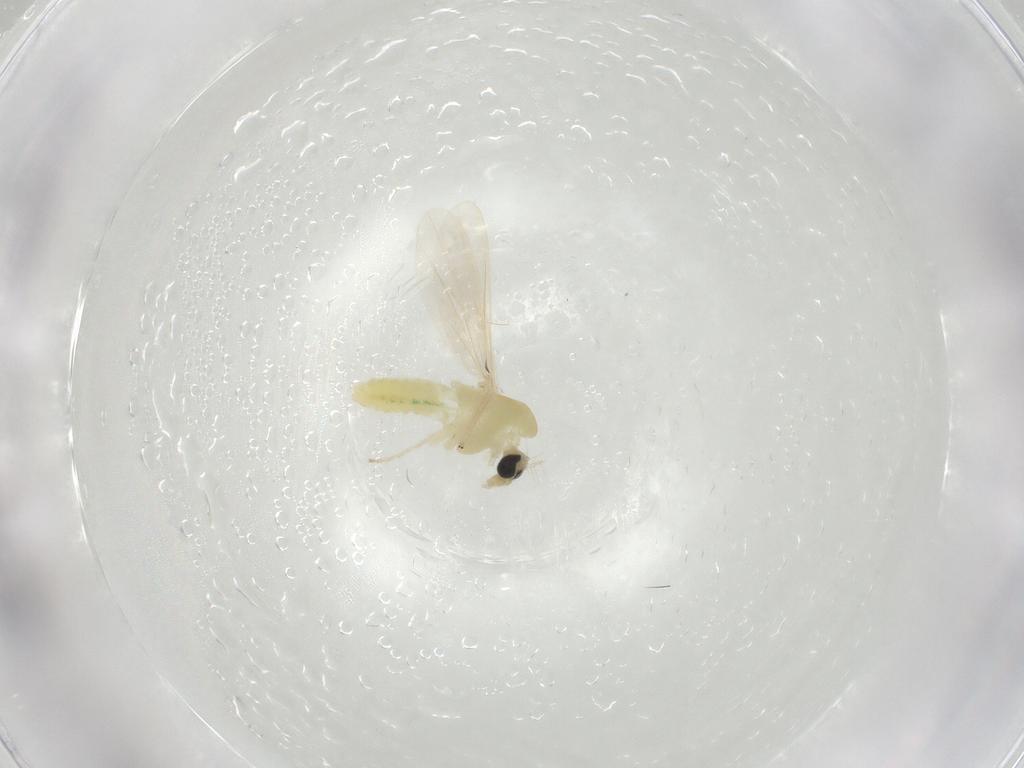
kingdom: Animalia
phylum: Arthropoda
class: Insecta
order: Diptera
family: Chironomidae
